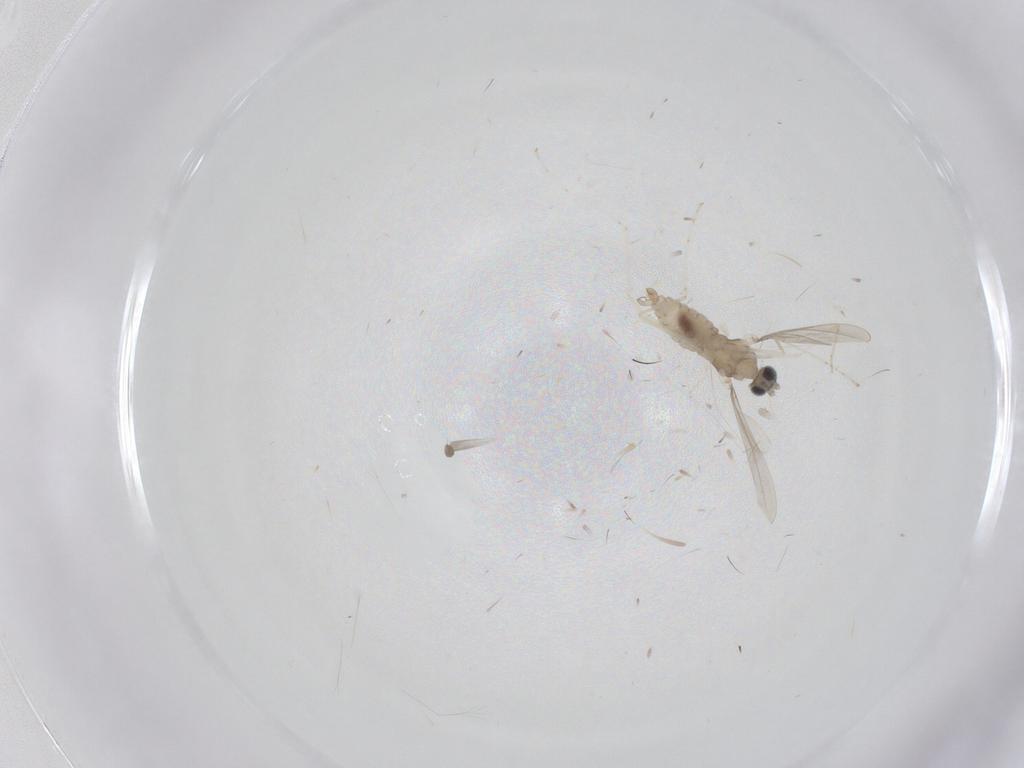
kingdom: Animalia
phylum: Arthropoda
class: Insecta
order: Diptera
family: Cecidomyiidae
